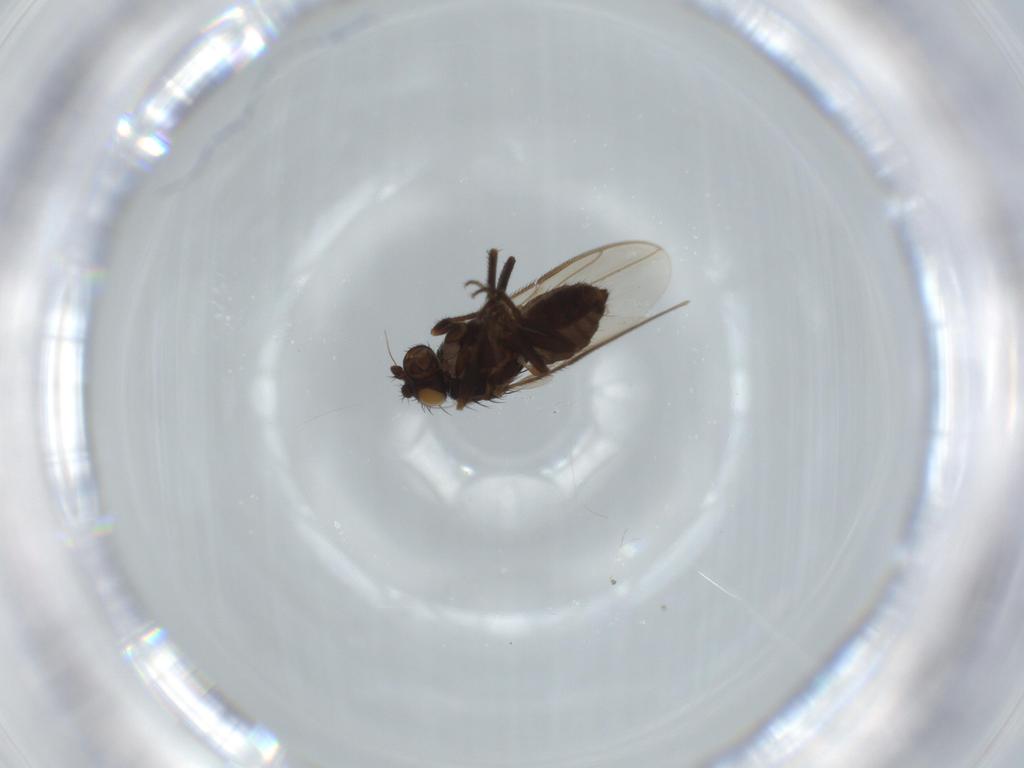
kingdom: Animalia
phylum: Arthropoda
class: Insecta
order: Diptera
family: Sphaeroceridae
